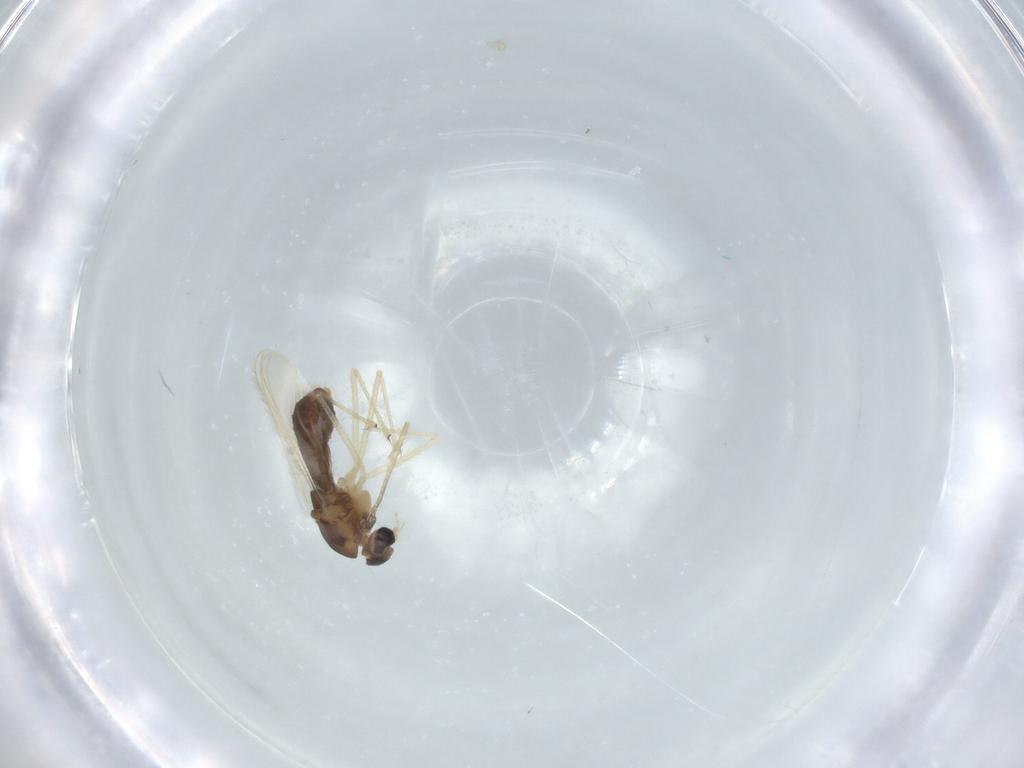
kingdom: Animalia
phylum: Arthropoda
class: Insecta
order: Diptera
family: Chironomidae
